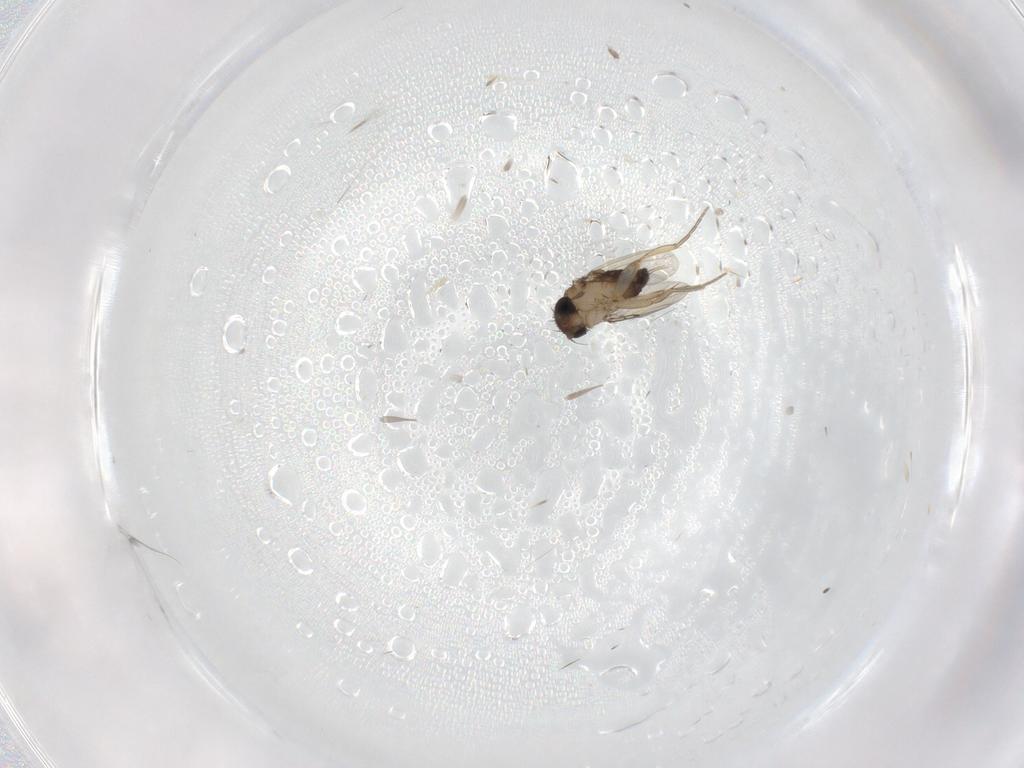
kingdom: Animalia
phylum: Arthropoda
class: Insecta
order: Diptera
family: Phoridae
